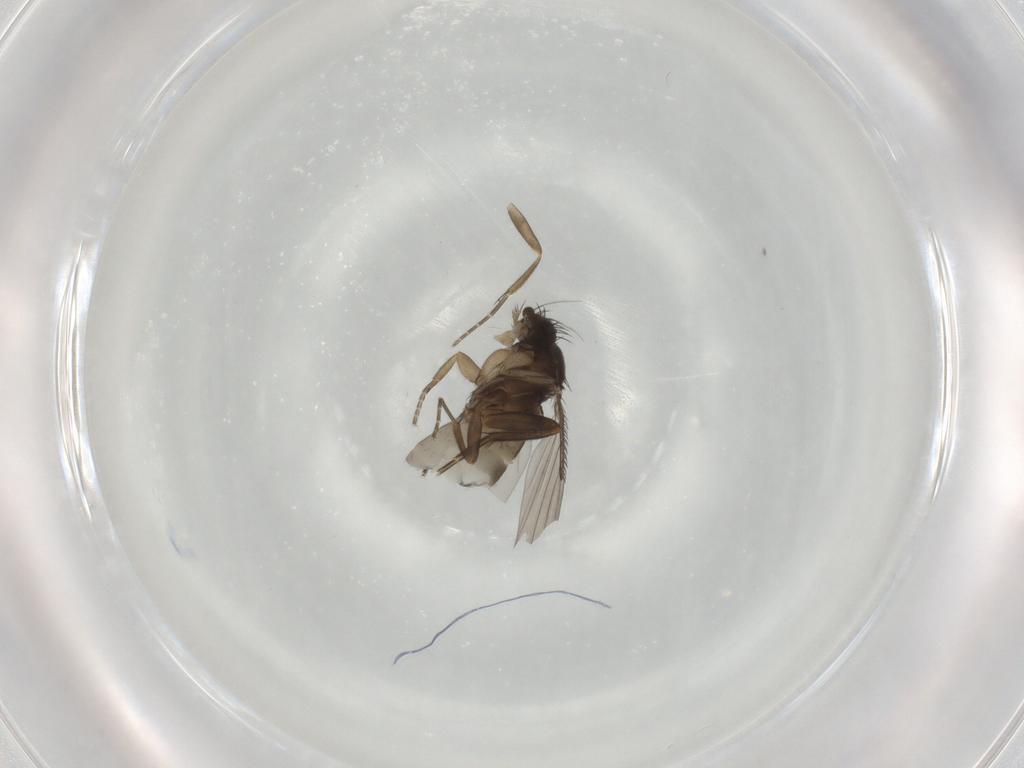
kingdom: Animalia
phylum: Arthropoda
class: Insecta
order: Diptera
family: Phoridae
